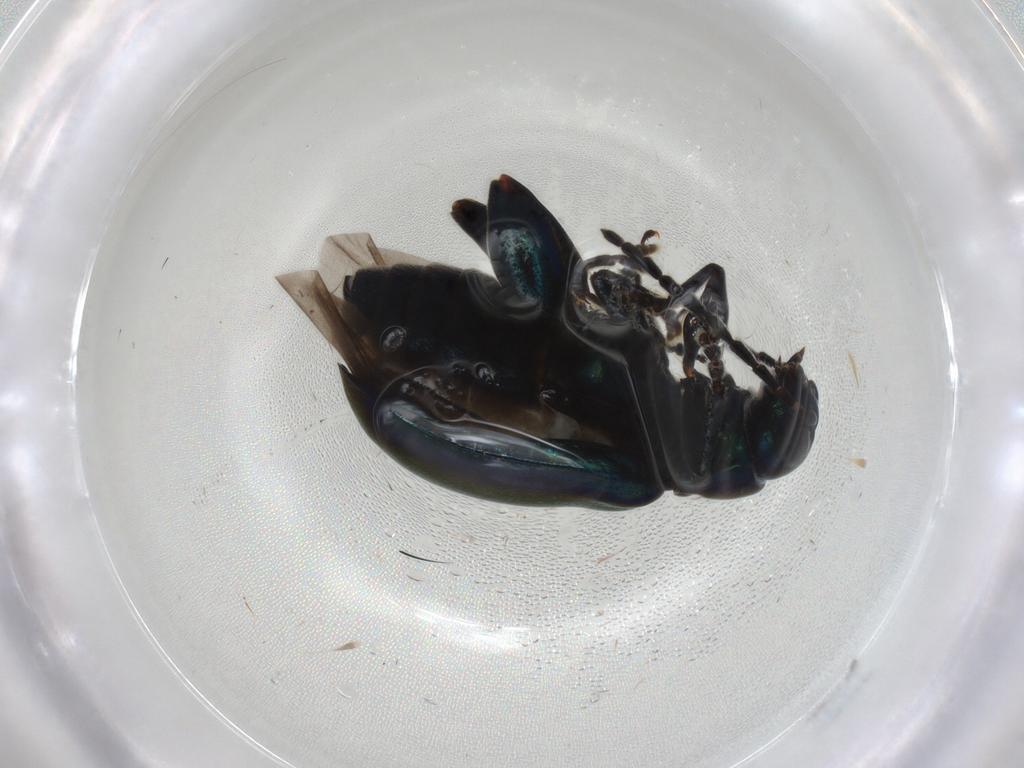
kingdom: Animalia
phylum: Arthropoda
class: Insecta
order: Coleoptera
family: Chrysomelidae
